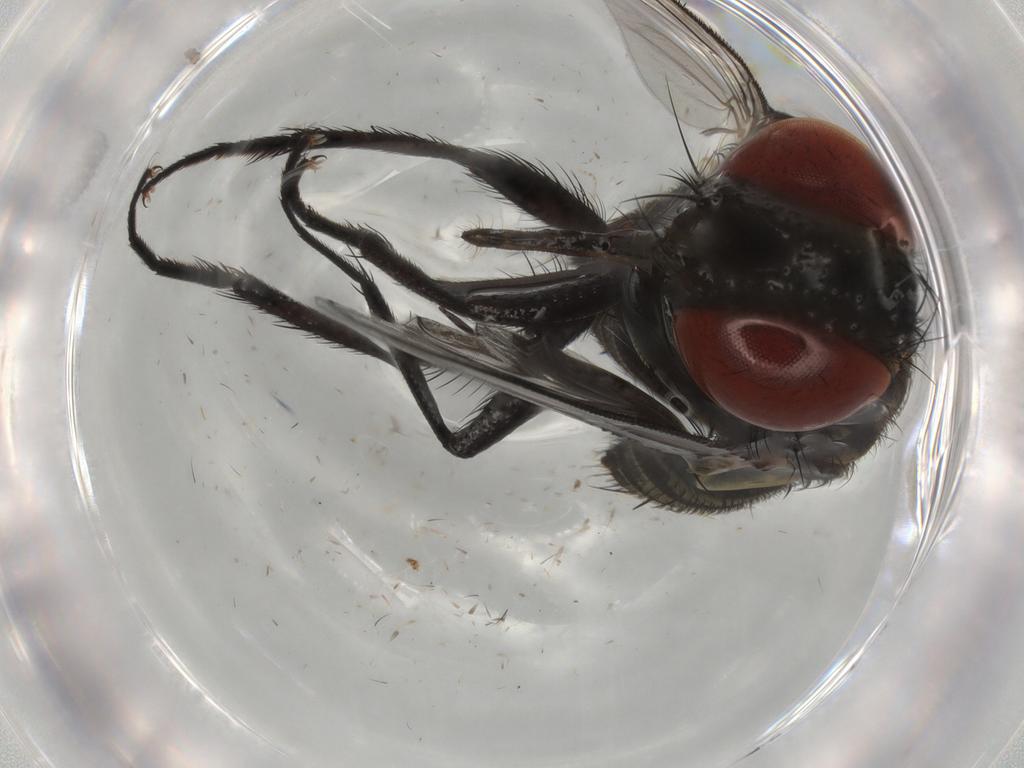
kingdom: Animalia
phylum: Arthropoda
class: Insecta
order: Diptera
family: Sarcophagidae
